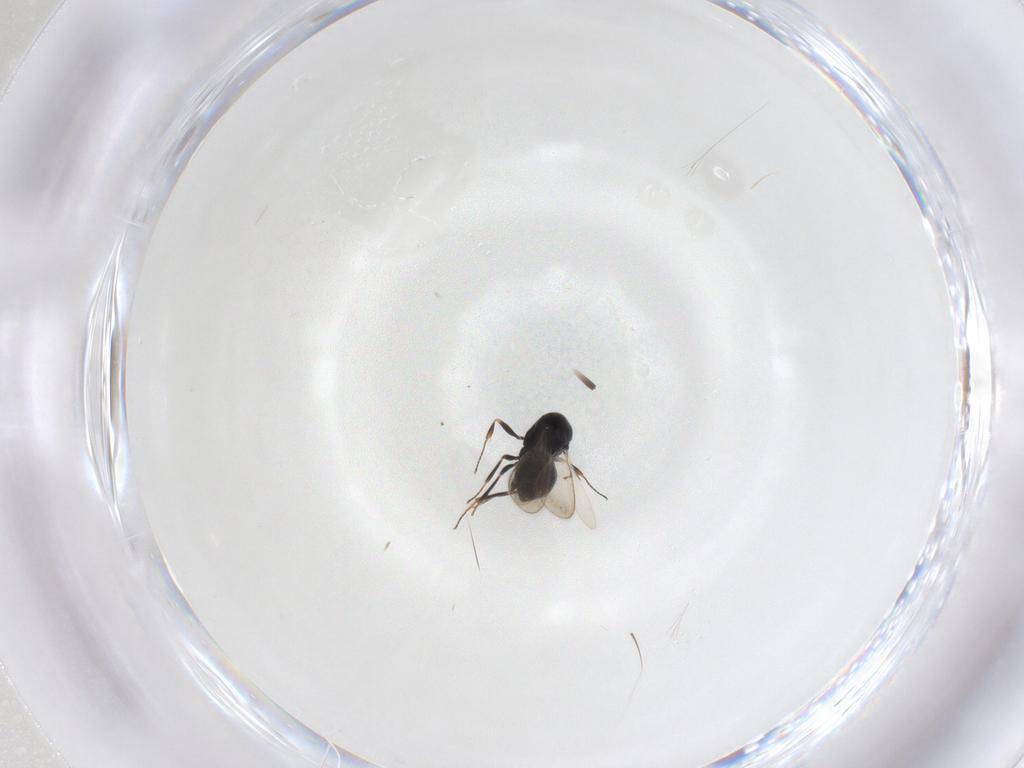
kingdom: Animalia
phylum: Arthropoda
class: Insecta
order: Hymenoptera
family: Scelionidae
